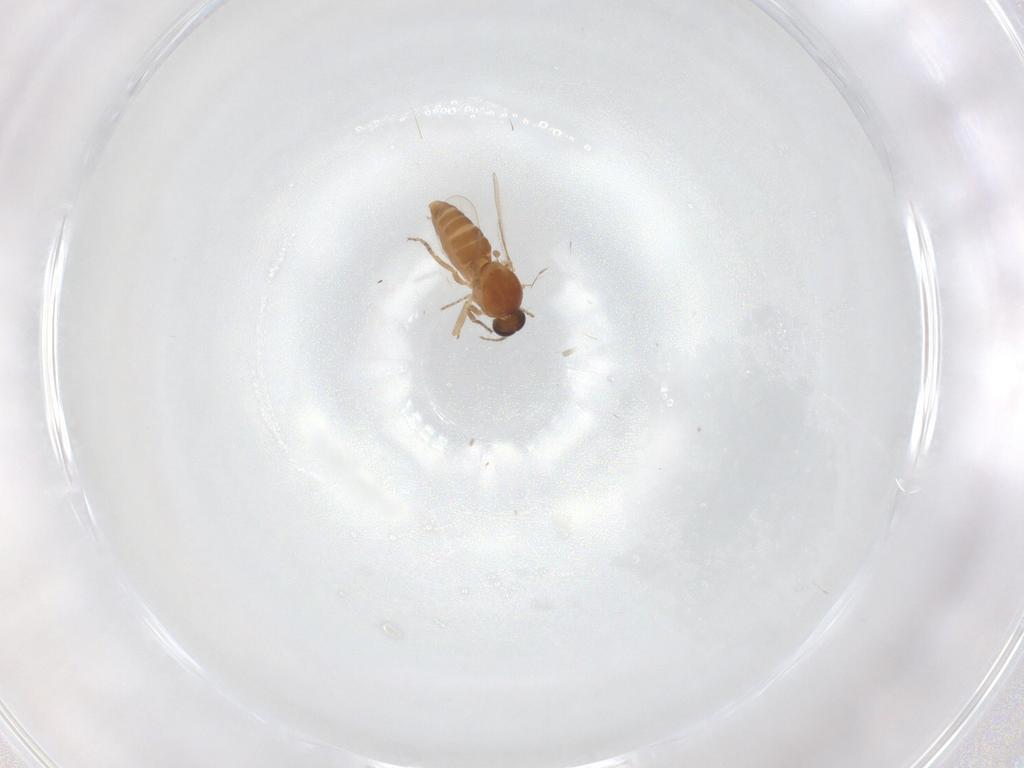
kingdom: Animalia
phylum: Arthropoda
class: Insecta
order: Diptera
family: Ceratopogonidae
